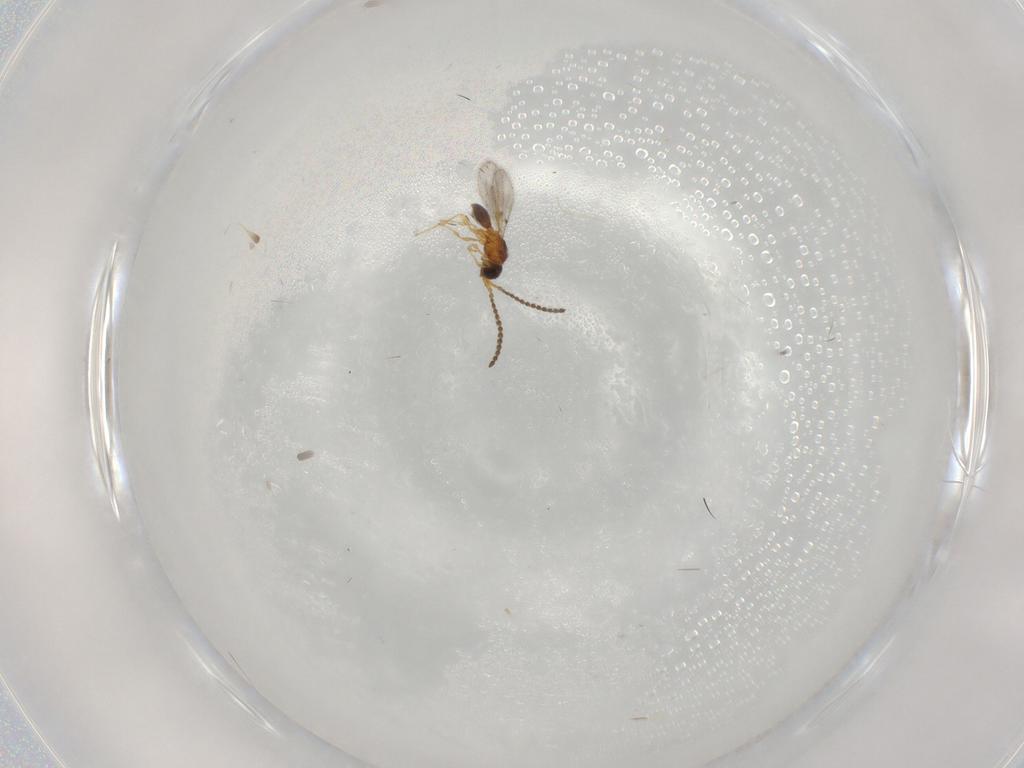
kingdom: Animalia
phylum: Arthropoda
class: Insecta
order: Hymenoptera
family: Diapriidae
